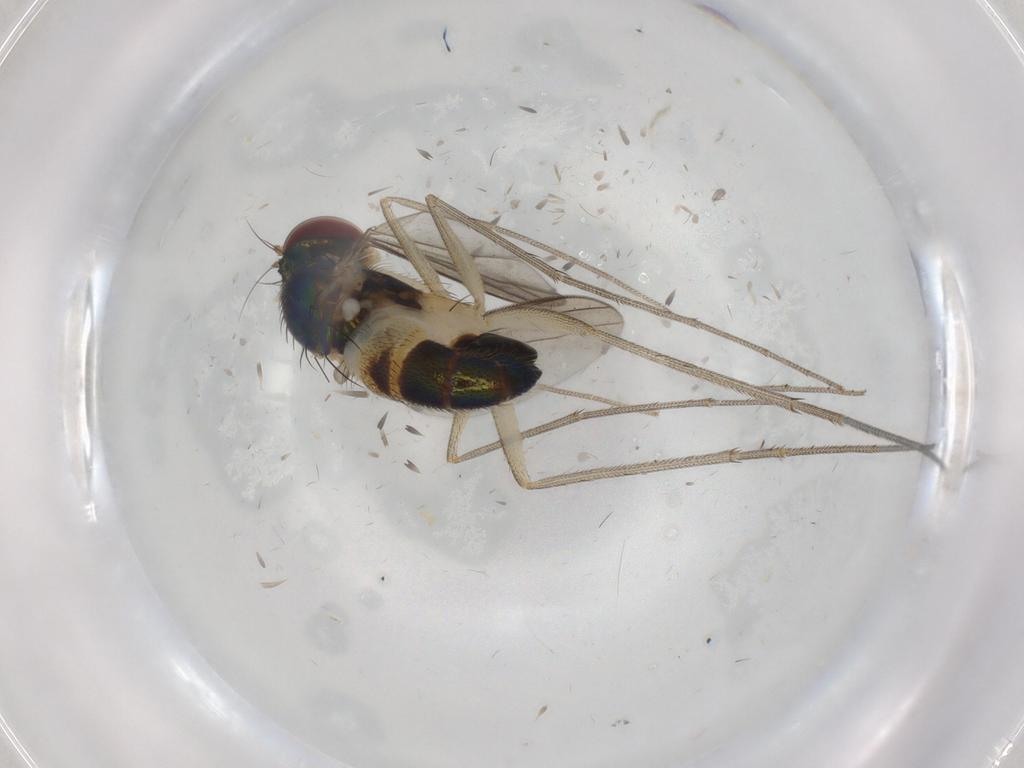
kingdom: Animalia
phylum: Arthropoda
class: Insecta
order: Diptera
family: Cecidomyiidae
